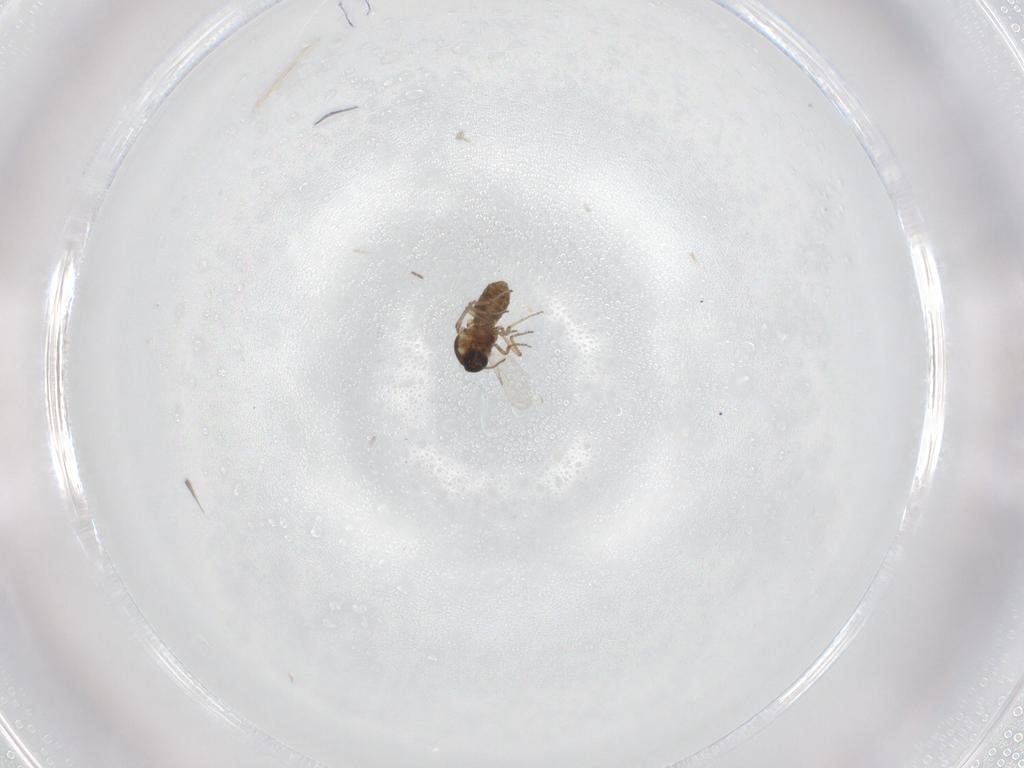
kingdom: Animalia
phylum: Arthropoda
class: Insecta
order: Diptera
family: Ceratopogonidae
